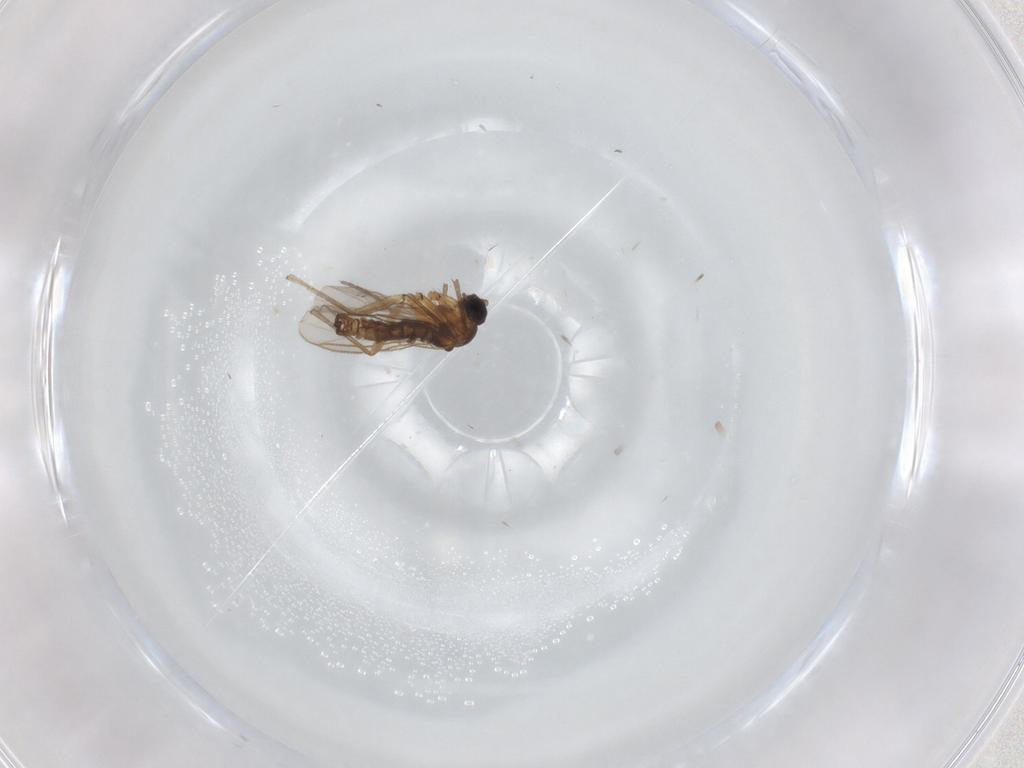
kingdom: Animalia
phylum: Arthropoda
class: Insecta
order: Diptera
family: Sciaridae
